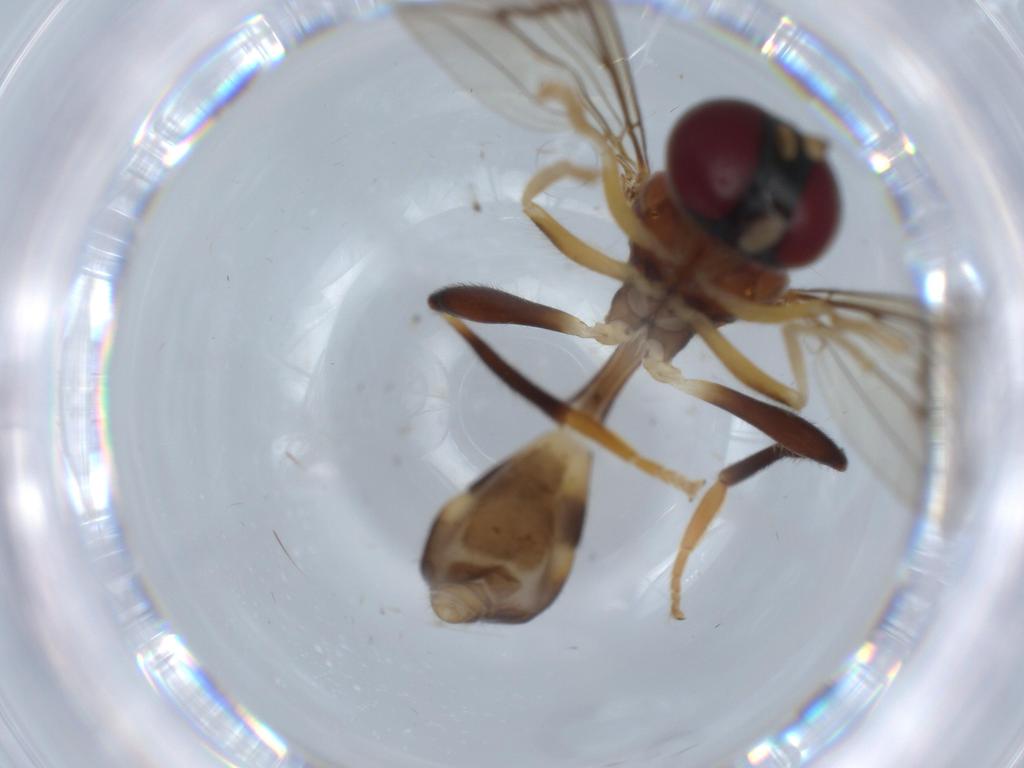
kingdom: Animalia
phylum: Arthropoda
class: Insecta
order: Diptera
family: Syrphidae
